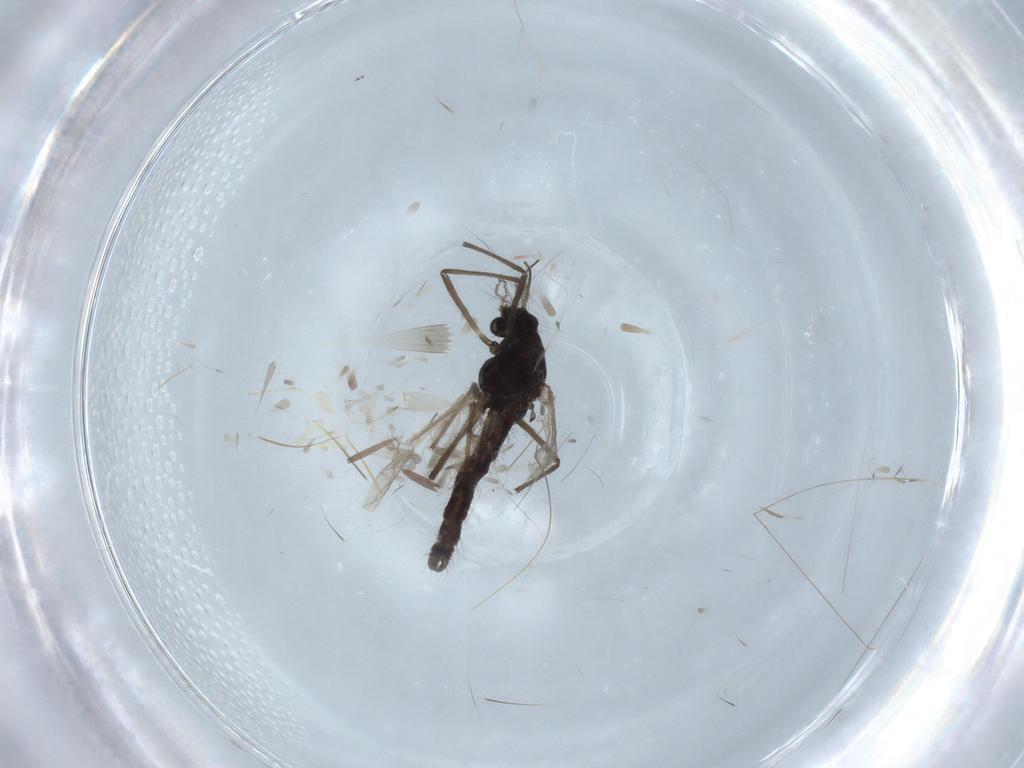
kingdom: Animalia
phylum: Arthropoda
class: Insecta
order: Diptera
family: Chironomidae
